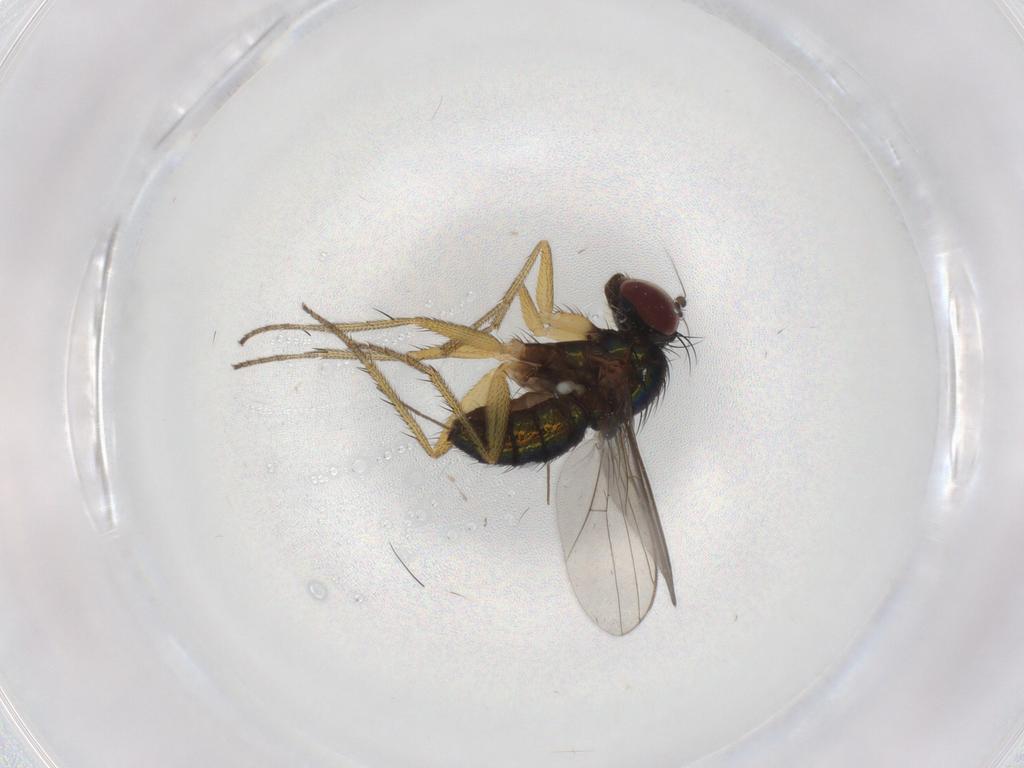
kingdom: Animalia
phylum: Arthropoda
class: Insecta
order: Diptera
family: Dolichopodidae
